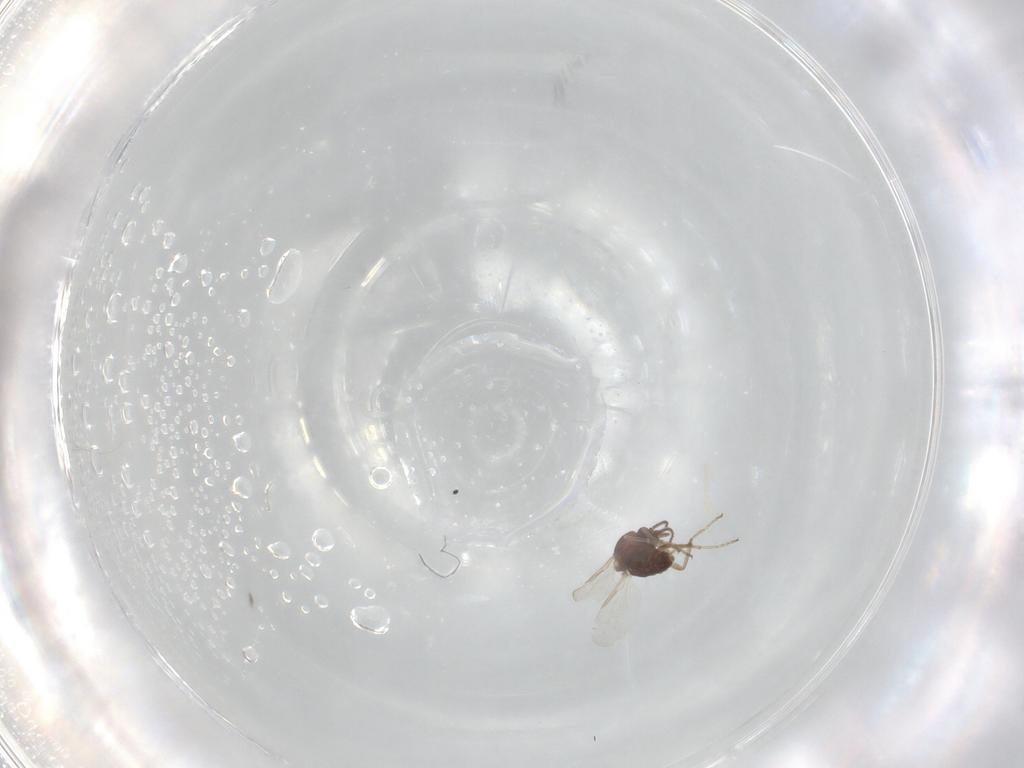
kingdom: Animalia
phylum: Arthropoda
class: Insecta
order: Diptera
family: Ceratopogonidae
